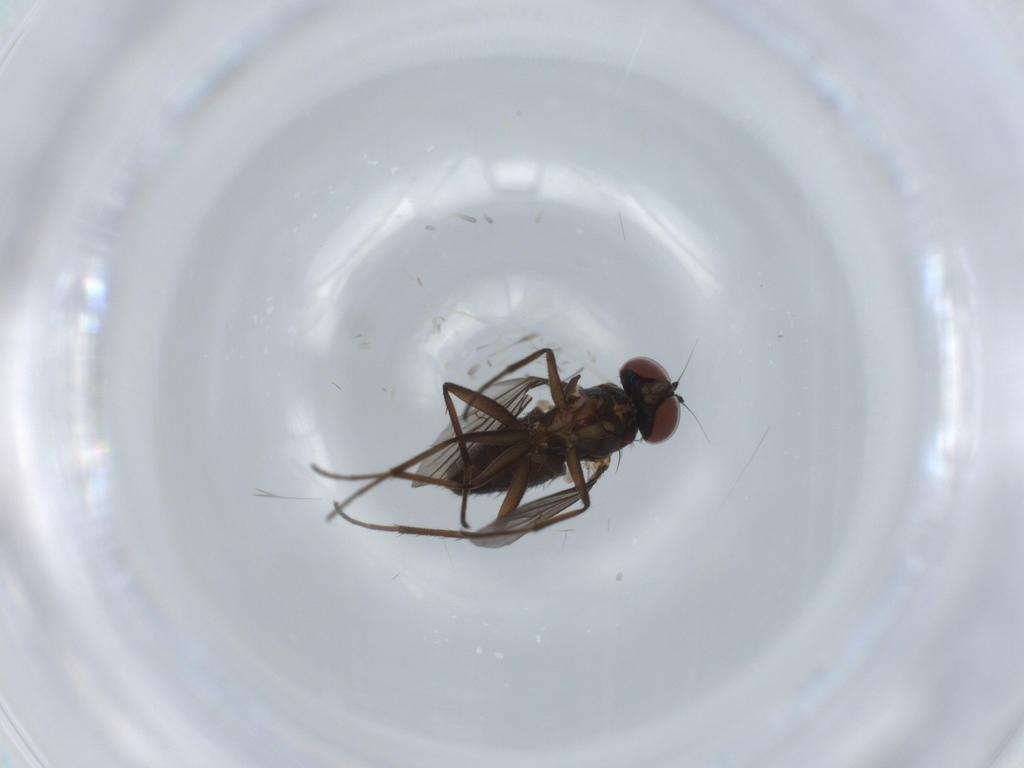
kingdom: Animalia
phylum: Arthropoda
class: Insecta
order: Diptera
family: Dolichopodidae
